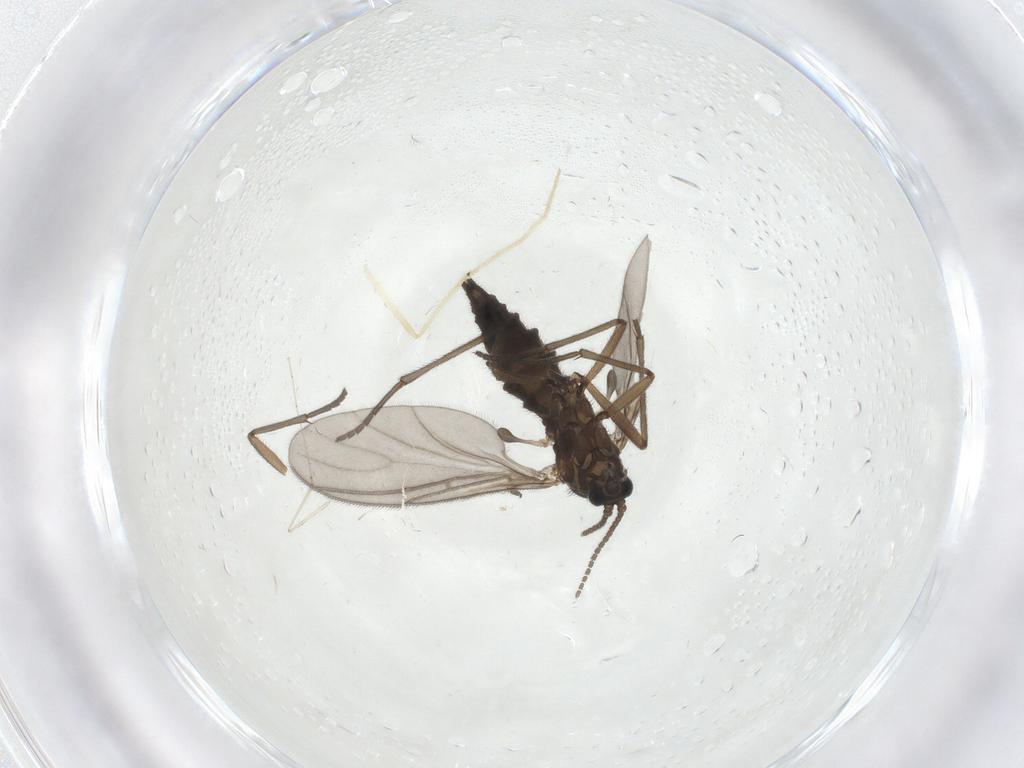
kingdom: Animalia
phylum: Arthropoda
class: Insecta
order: Diptera
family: Sciaridae
